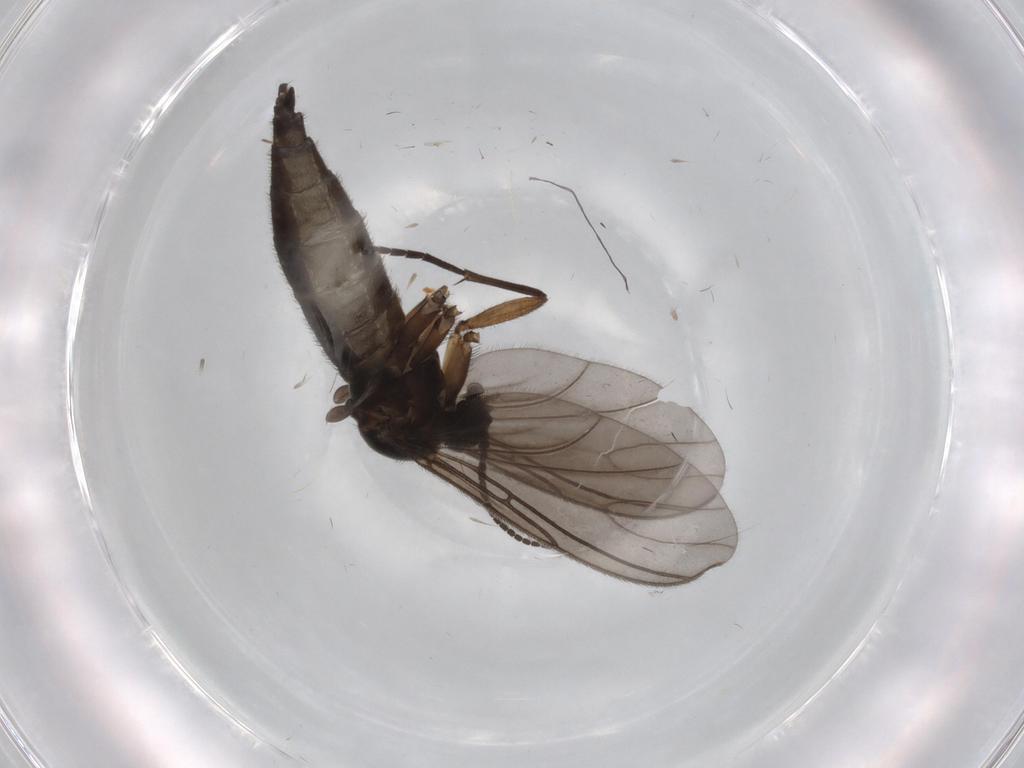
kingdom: Animalia
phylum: Arthropoda
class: Insecta
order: Diptera
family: Sciaridae
